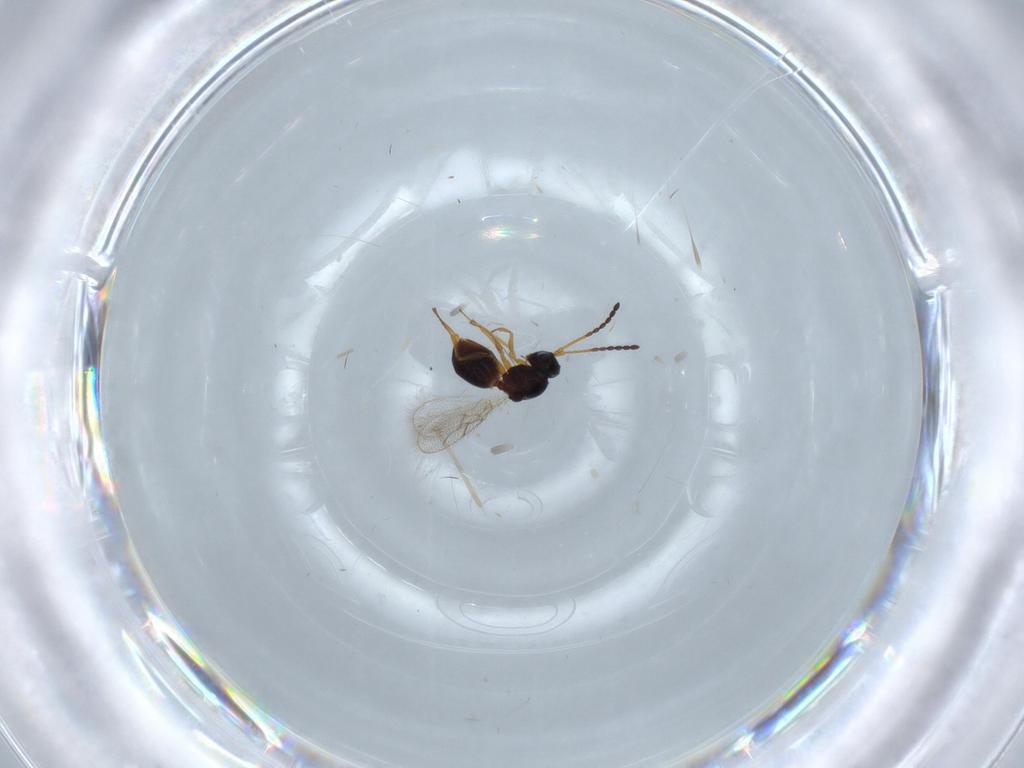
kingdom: Animalia
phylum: Arthropoda
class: Insecta
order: Hymenoptera
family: Figitidae
